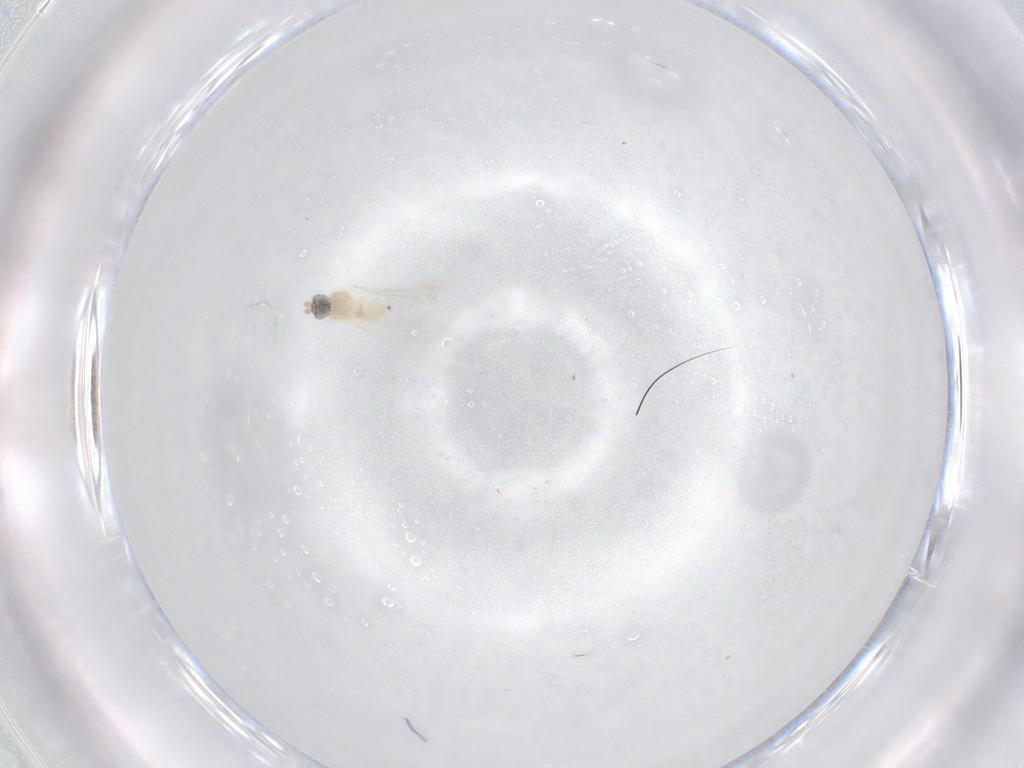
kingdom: Animalia
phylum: Arthropoda
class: Insecta
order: Diptera
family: Cecidomyiidae
